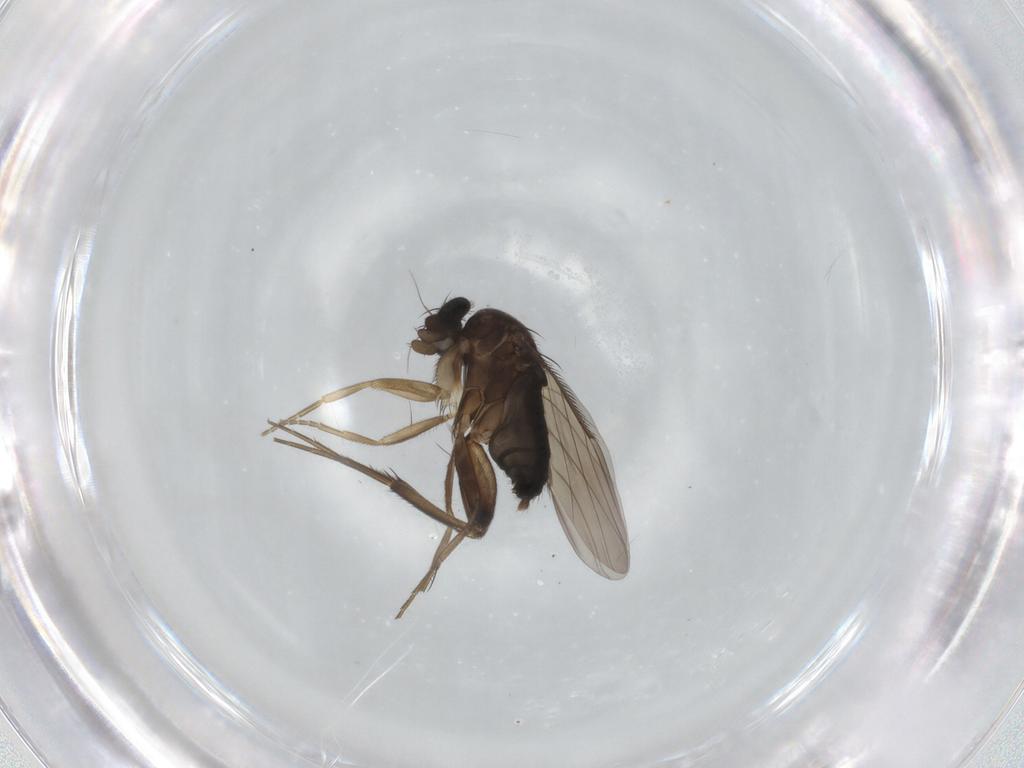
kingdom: Animalia
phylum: Arthropoda
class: Insecta
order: Diptera
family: Phoridae
